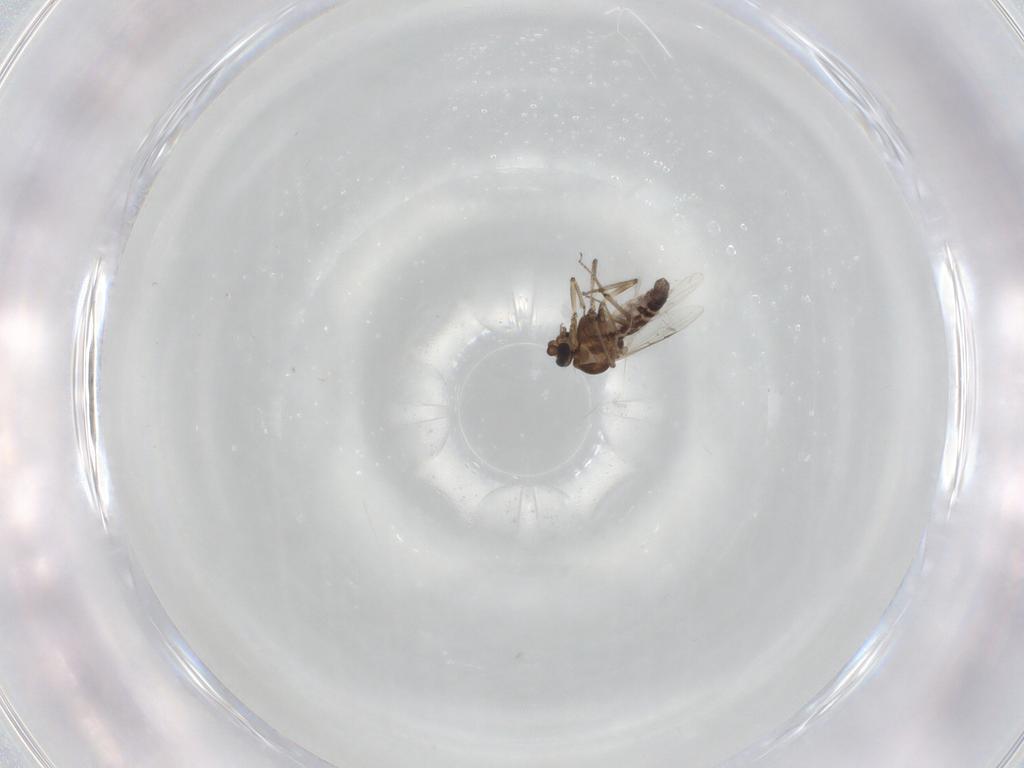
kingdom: Animalia
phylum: Arthropoda
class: Insecta
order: Diptera
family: Ceratopogonidae
